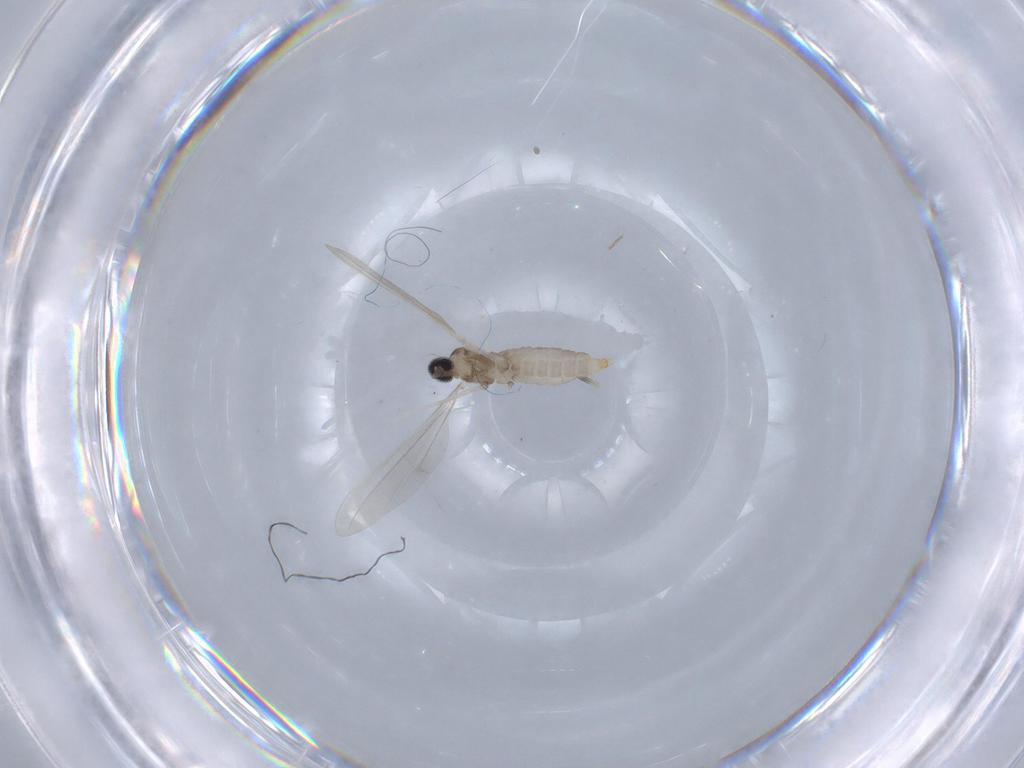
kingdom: Animalia
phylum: Arthropoda
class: Insecta
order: Diptera
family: Cecidomyiidae
